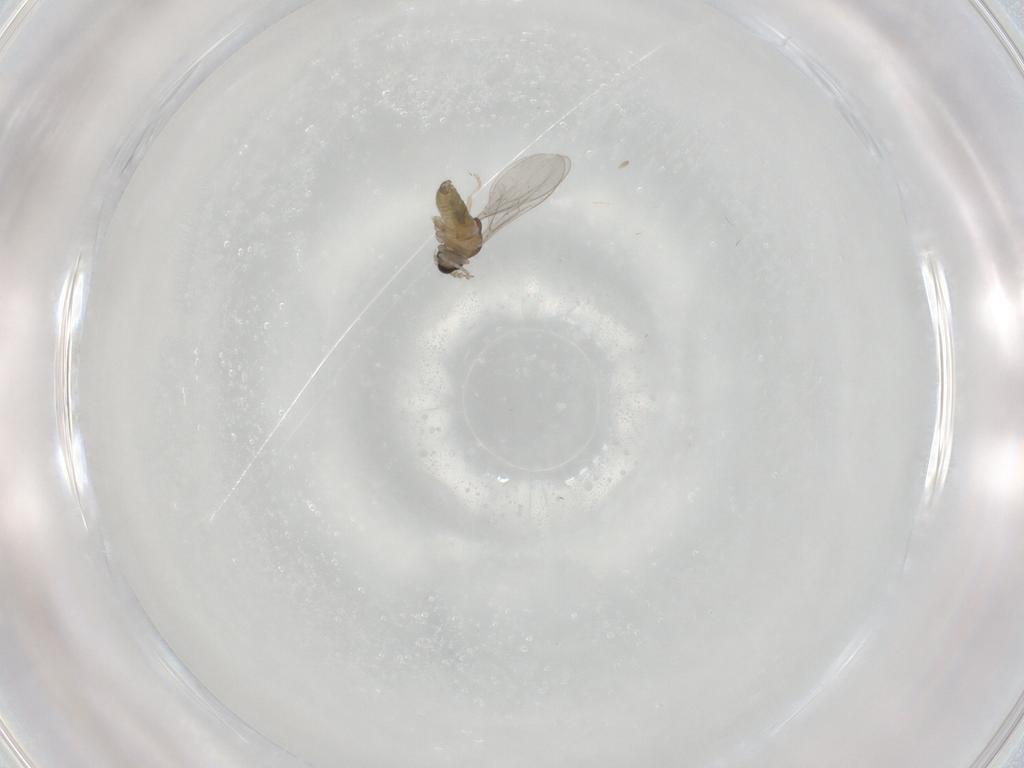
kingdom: Animalia
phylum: Arthropoda
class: Insecta
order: Diptera
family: Cecidomyiidae
